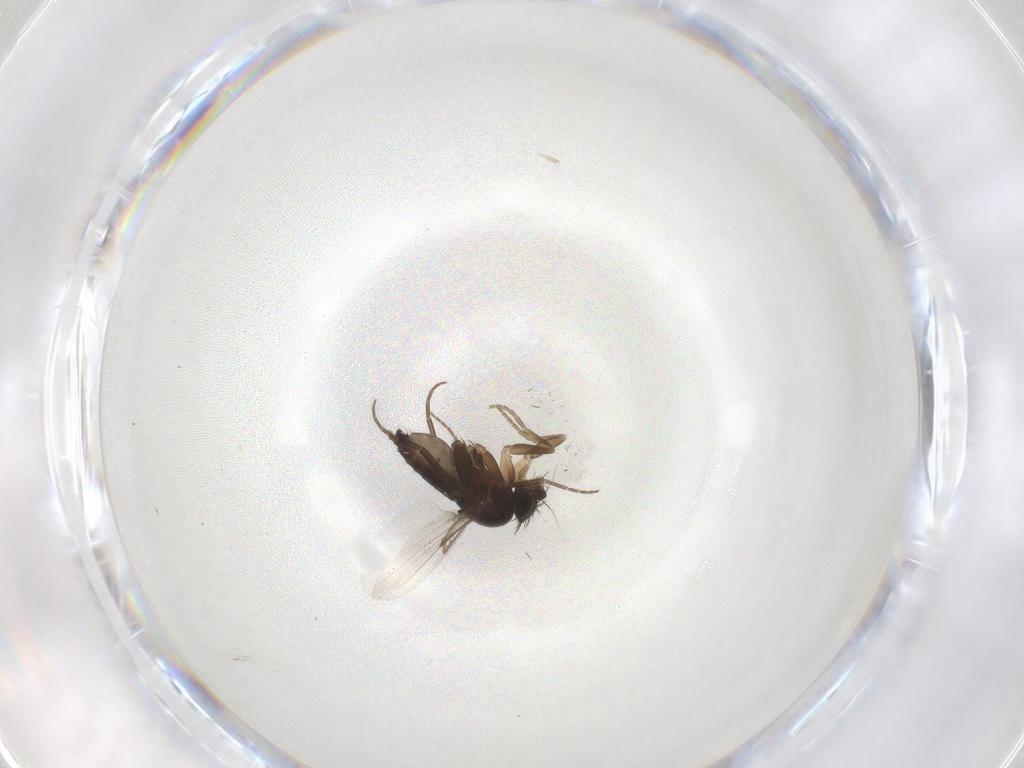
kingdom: Animalia
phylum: Arthropoda
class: Insecta
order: Diptera
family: Phoridae
